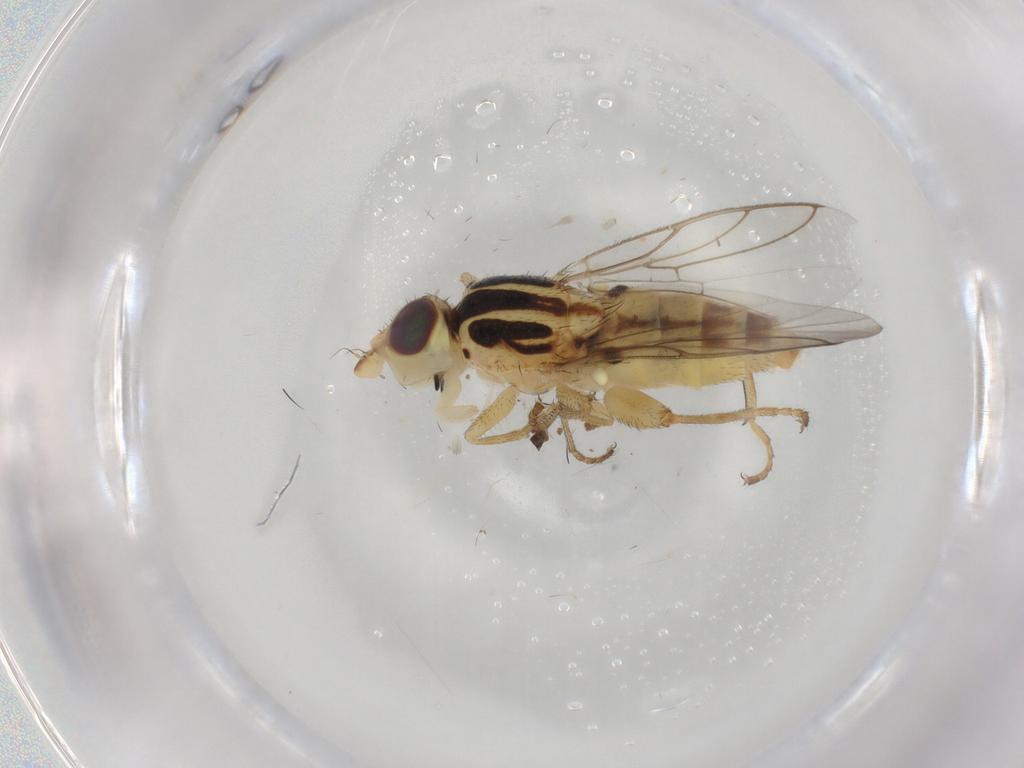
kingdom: Animalia
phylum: Arthropoda
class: Insecta
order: Diptera
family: Chloropidae
